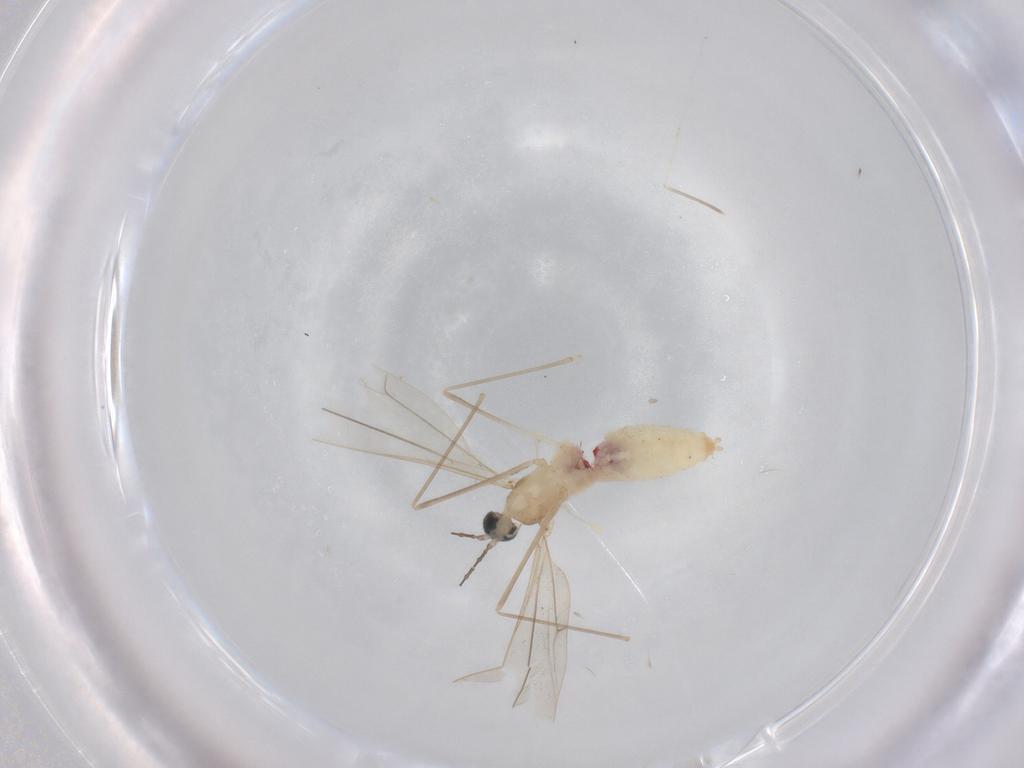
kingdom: Animalia
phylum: Arthropoda
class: Insecta
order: Diptera
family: Cecidomyiidae
